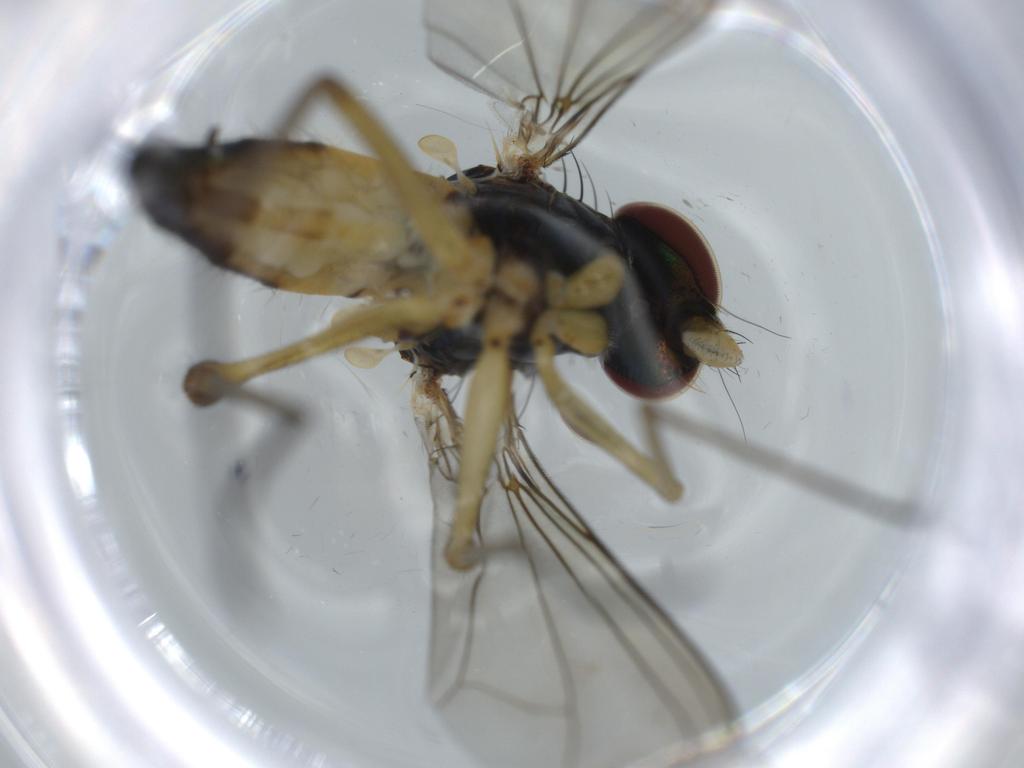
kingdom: Animalia
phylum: Arthropoda
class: Insecta
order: Diptera
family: Dolichopodidae
